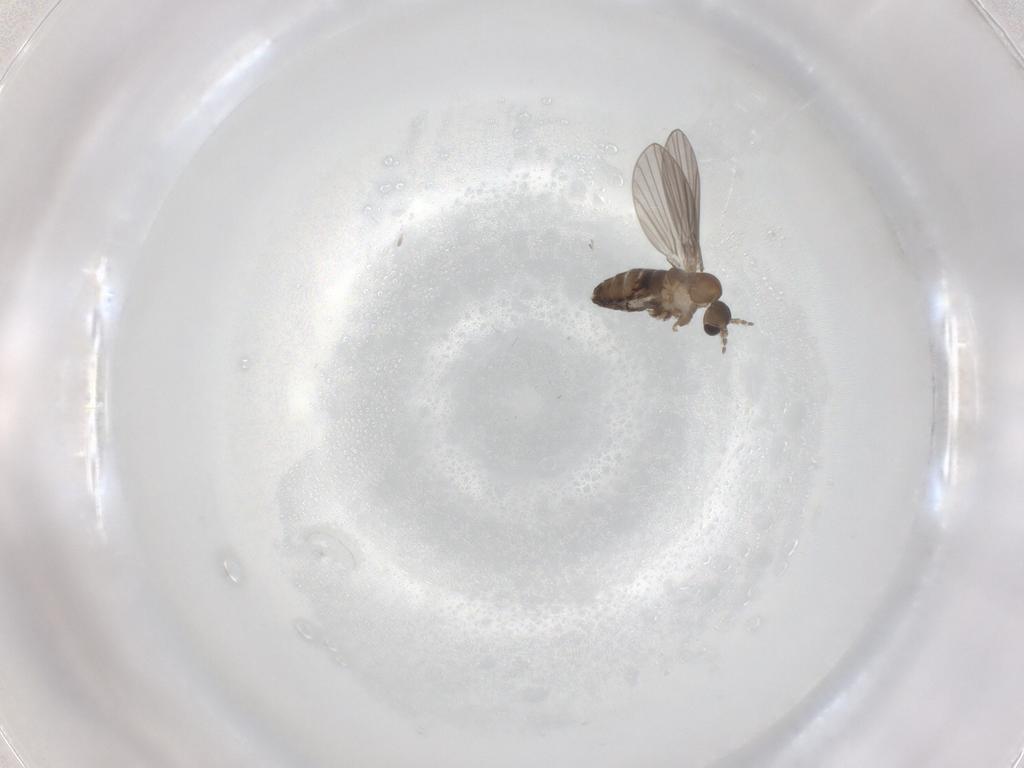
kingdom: Animalia
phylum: Arthropoda
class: Insecta
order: Diptera
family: Psychodidae
